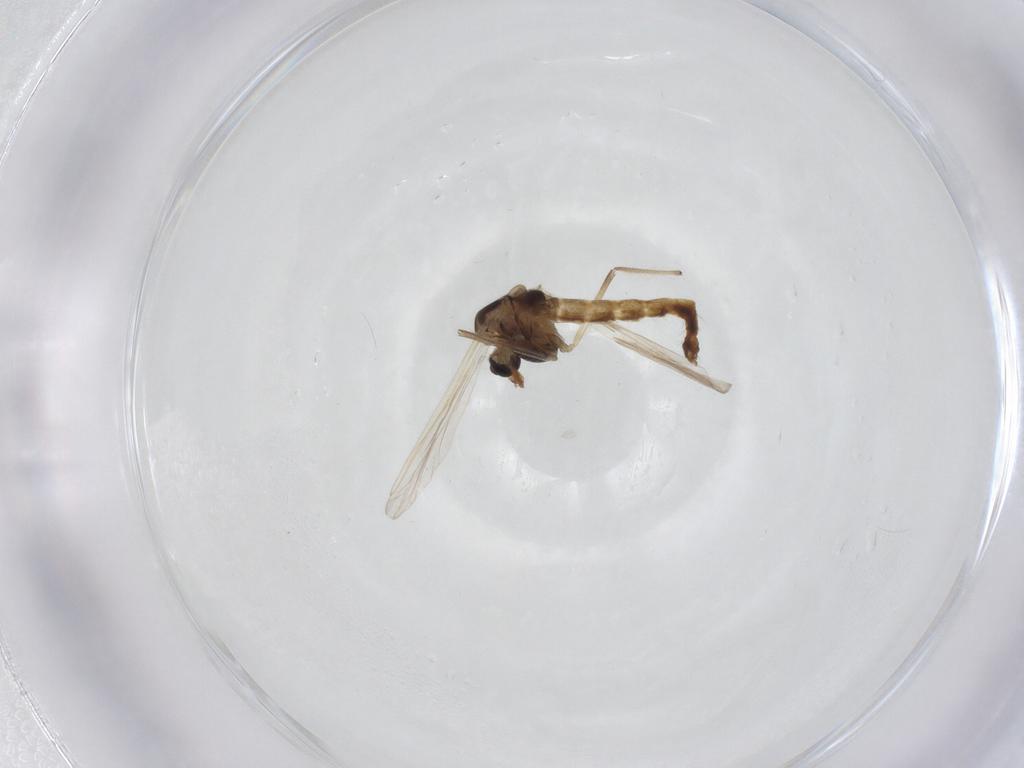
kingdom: Animalia
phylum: Arthropoda
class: Insecta
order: Diptera
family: Chironomidae
